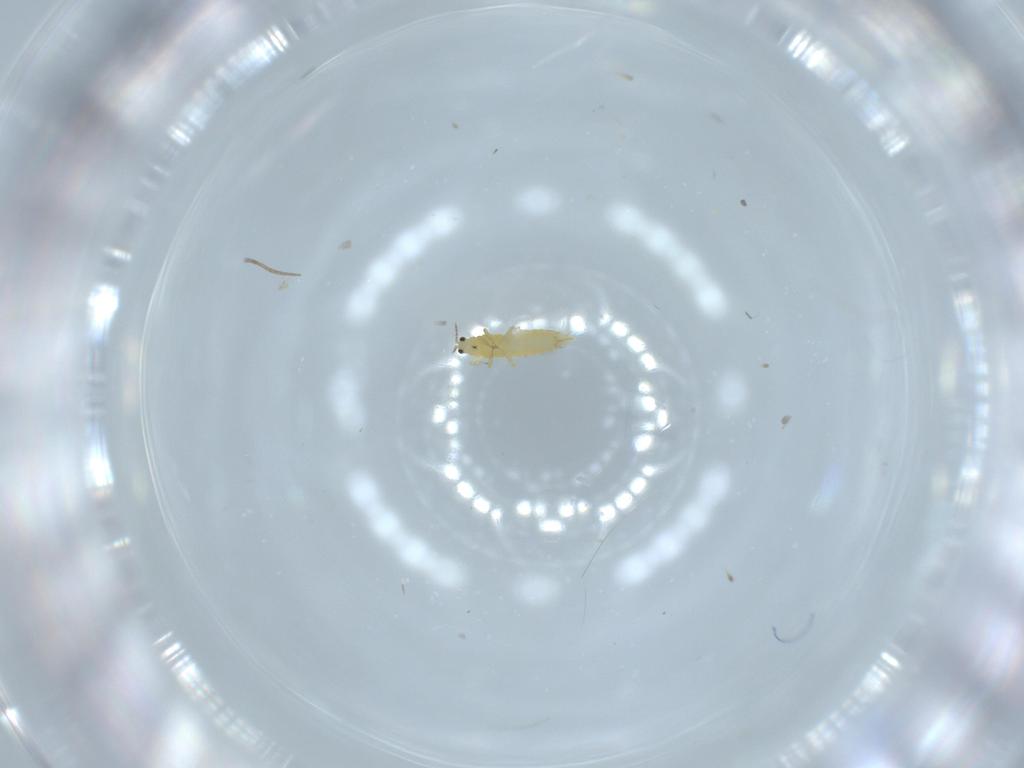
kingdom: Animalia
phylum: Arthropoda
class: Insecta
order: Thysanoptera
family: Thripidae
